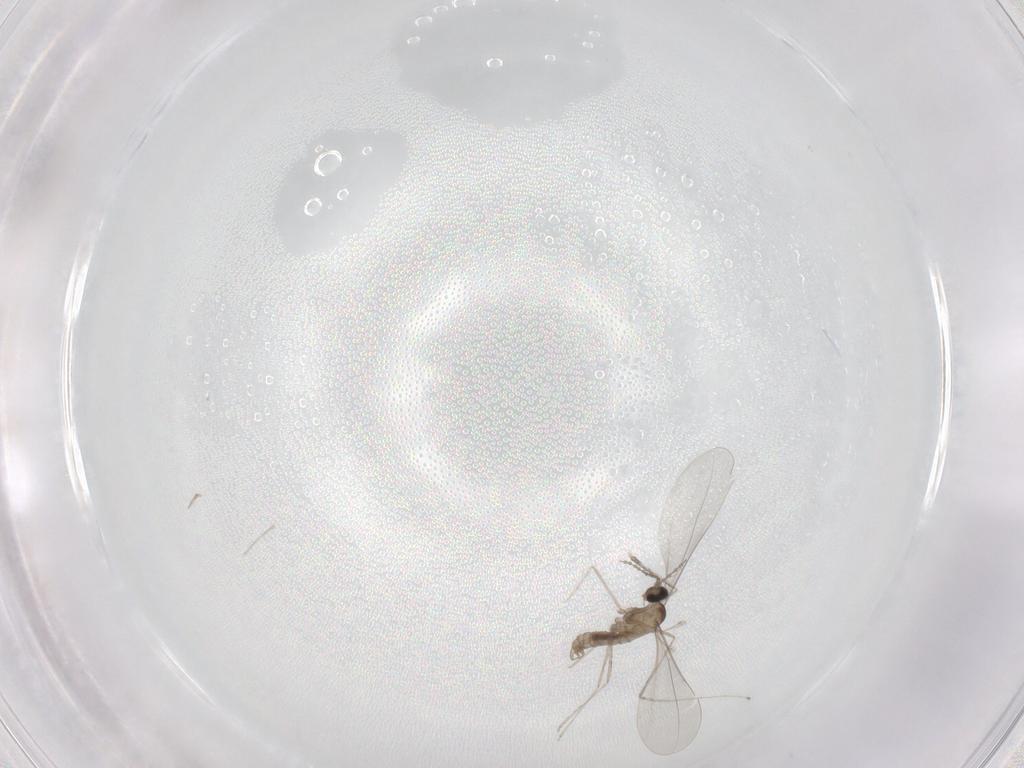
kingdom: Animalia
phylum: Arthropoda
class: Insecta
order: Diptera
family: Cecidomyiidae
